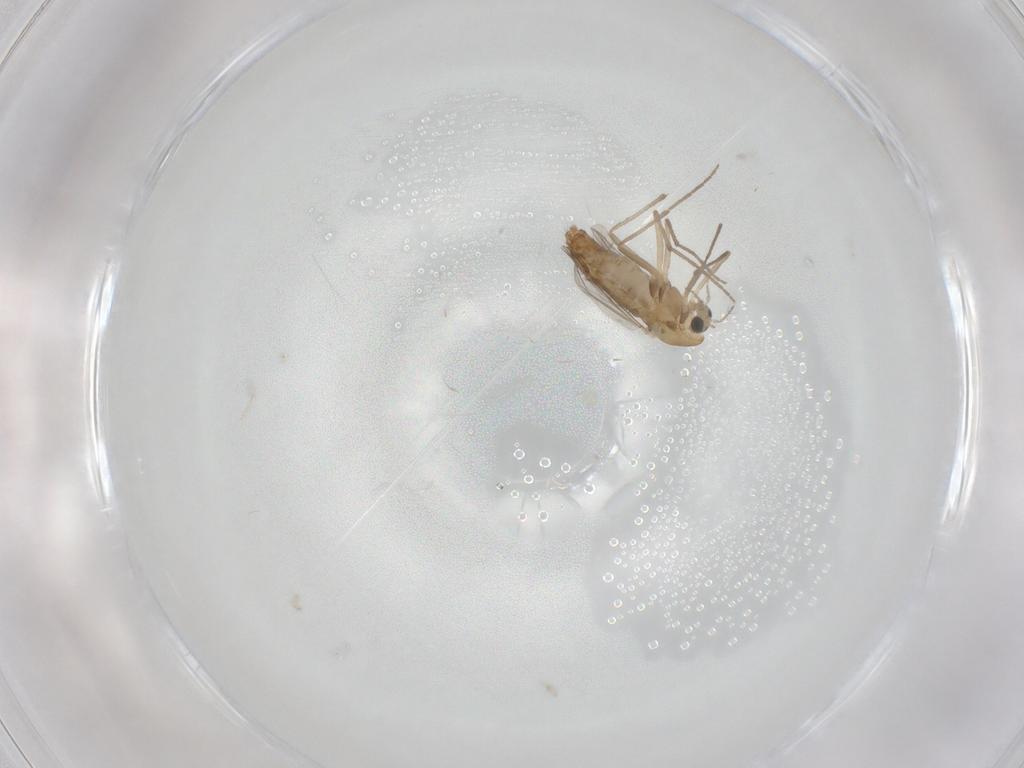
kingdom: Animalia
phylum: Arthropoda
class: Insecta
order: Diptera
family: Chironomidae
